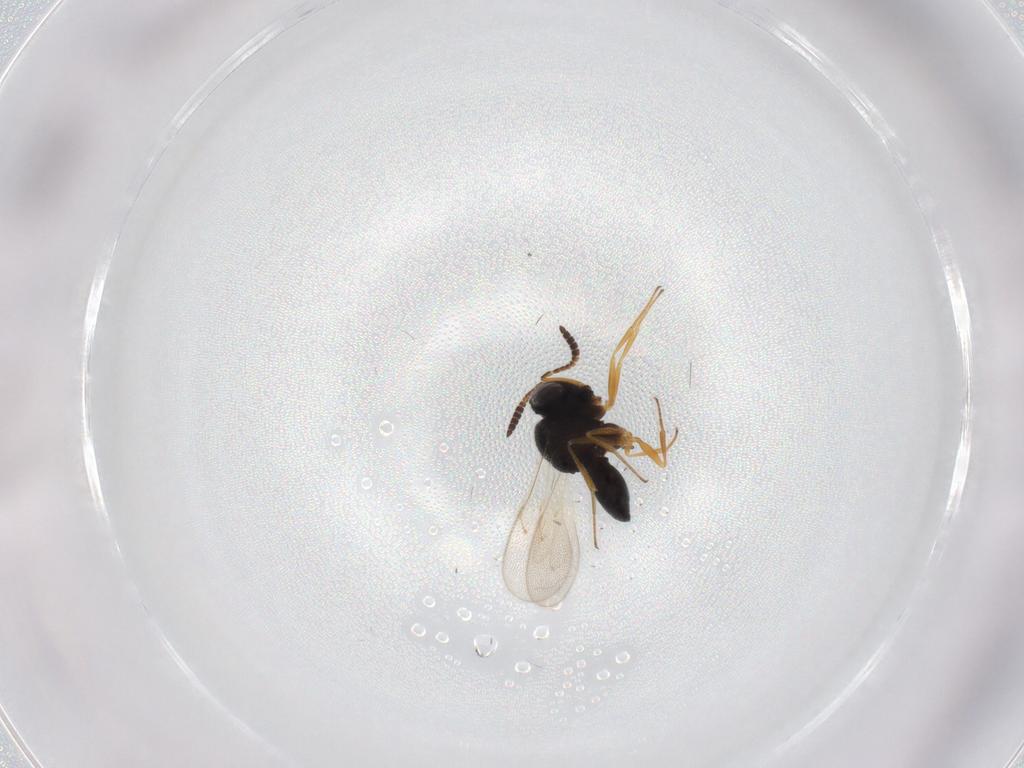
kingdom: Animalia
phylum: Arthropoda
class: Insecta
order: Hymenoptera
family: Scelionidae
